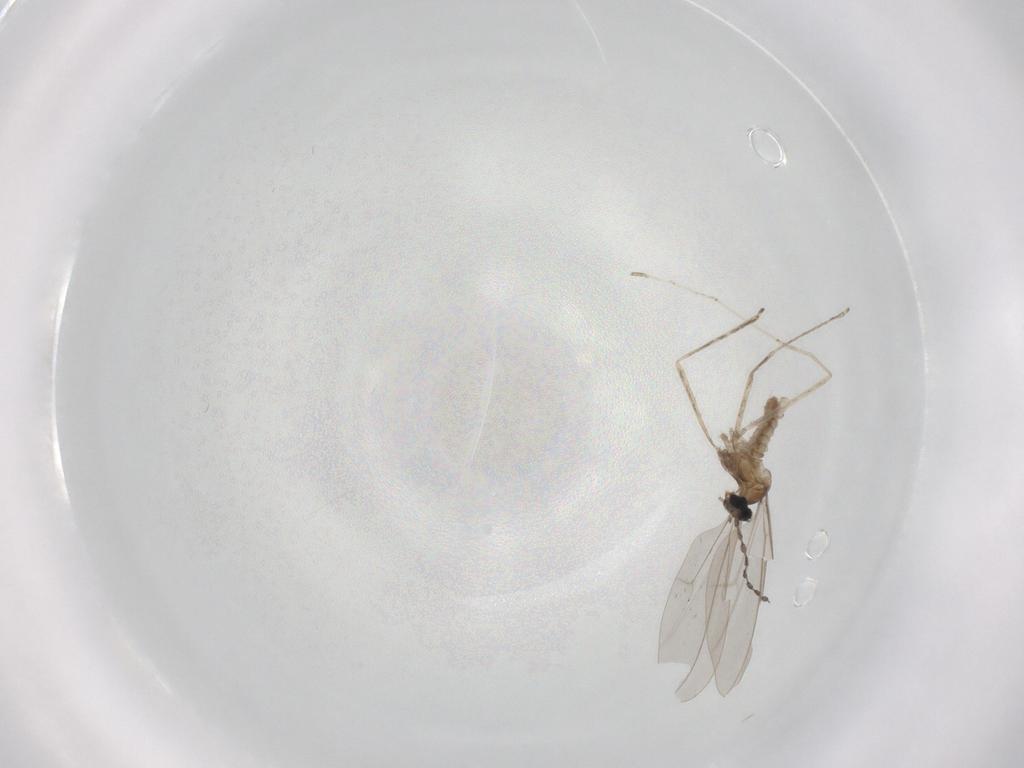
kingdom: Animalia
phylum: Arthropoda
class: Insecta
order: Diptera
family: Cecidomyiidae
